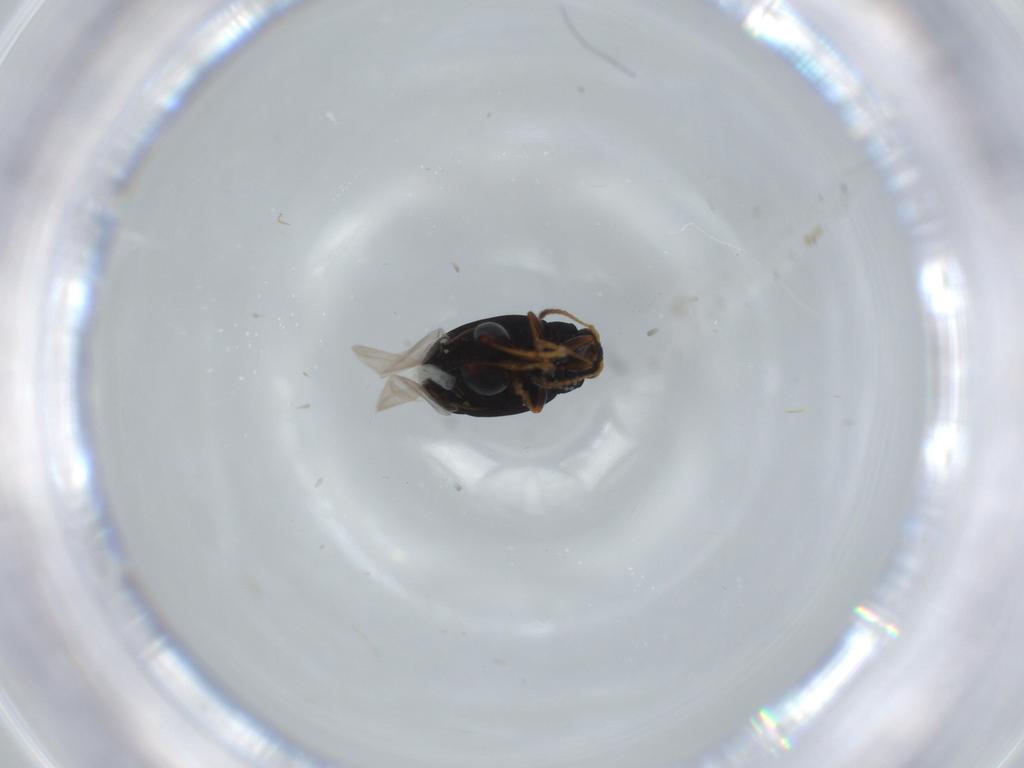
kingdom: Animalia
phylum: Arthropoda
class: Insecta
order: Coleoptera
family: Chrysomelidae
